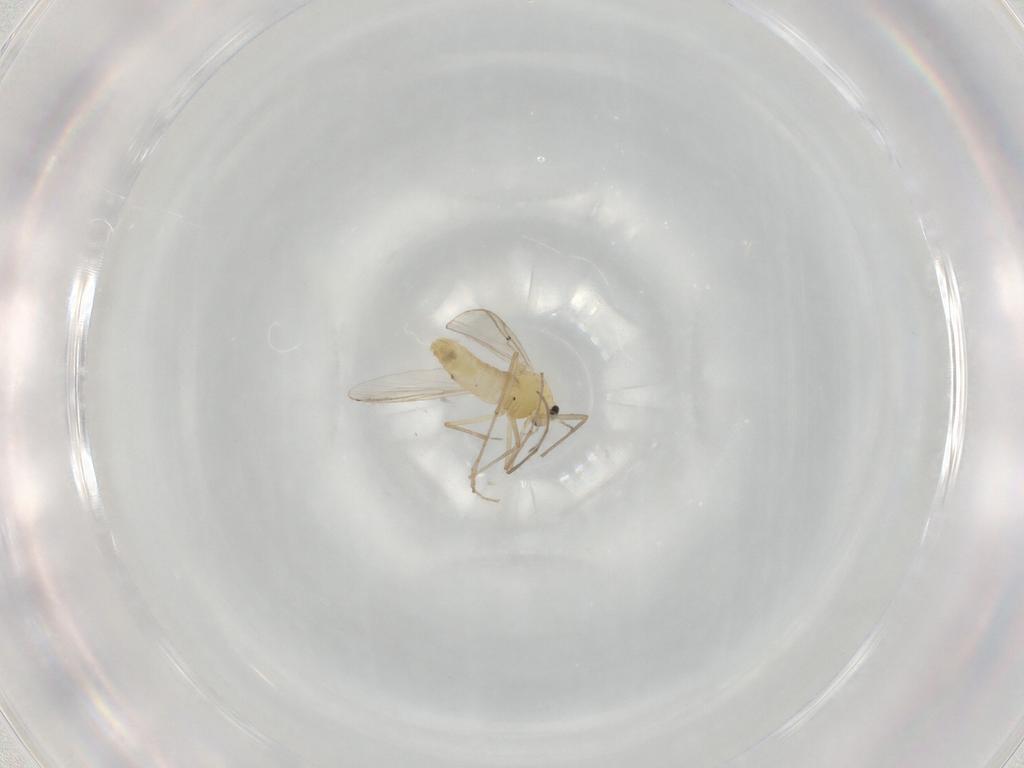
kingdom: Animalia
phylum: Arthropoda
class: Insecta
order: Diptera
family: Chironomidae
